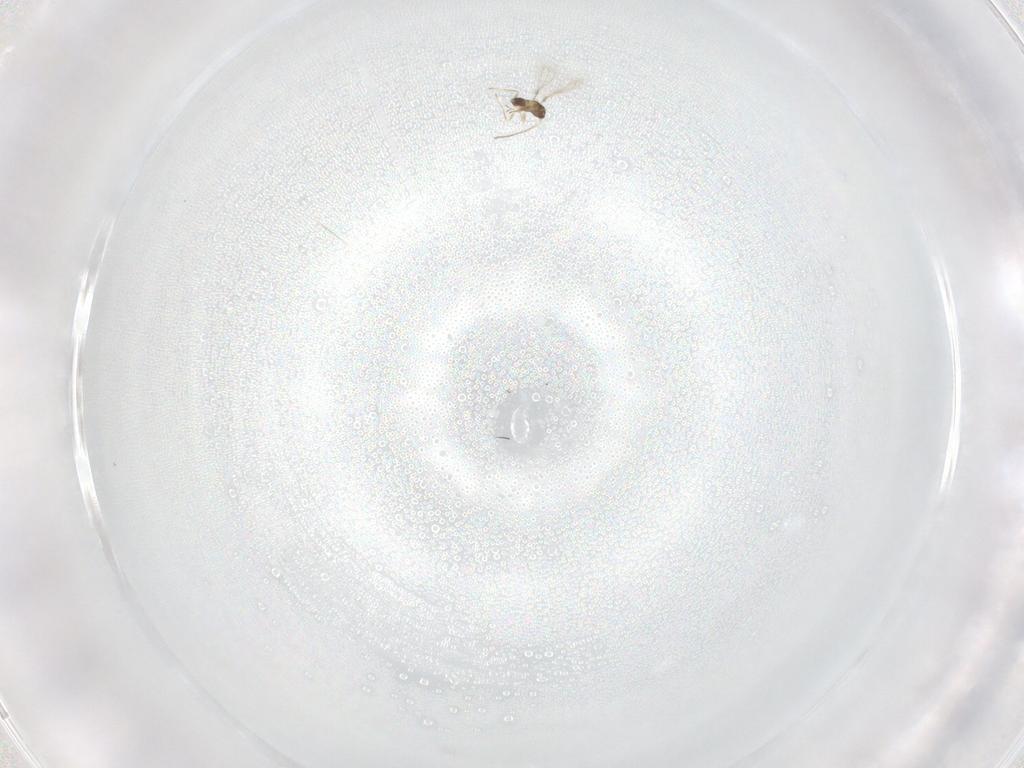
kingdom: Animalia
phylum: Arthropoda
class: Insecta
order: Hymenoptera
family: Mymaridae
